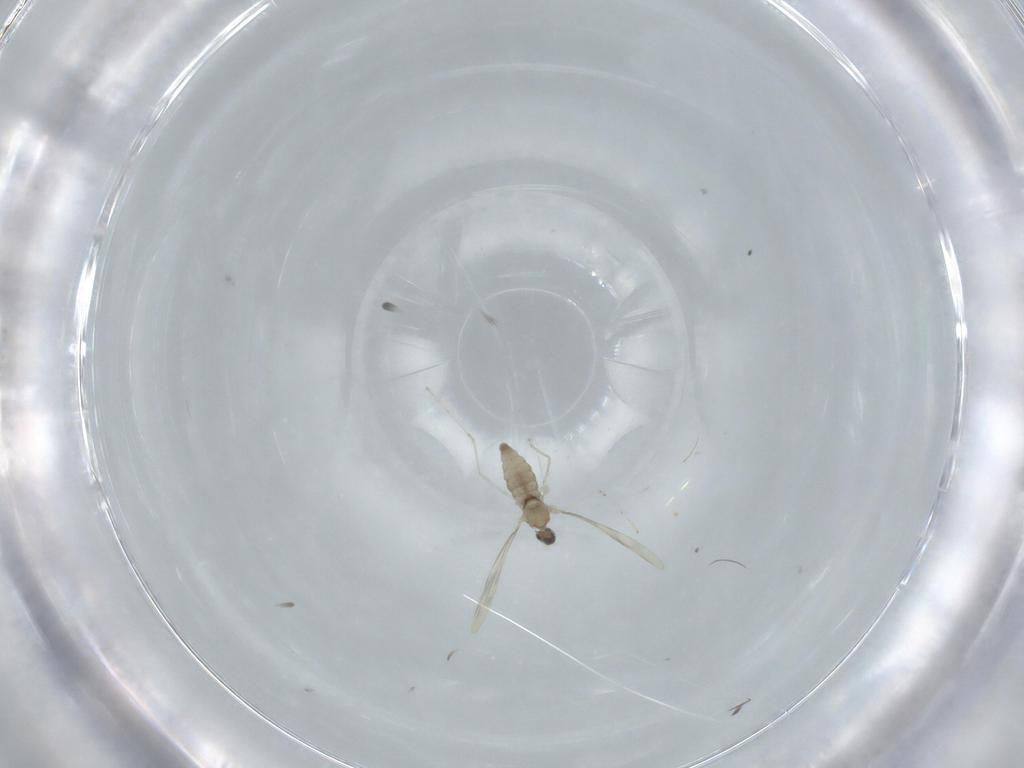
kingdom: Animalia
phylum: Arthropoda
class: Insecta
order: Diptera
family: Cecidomyiidae
